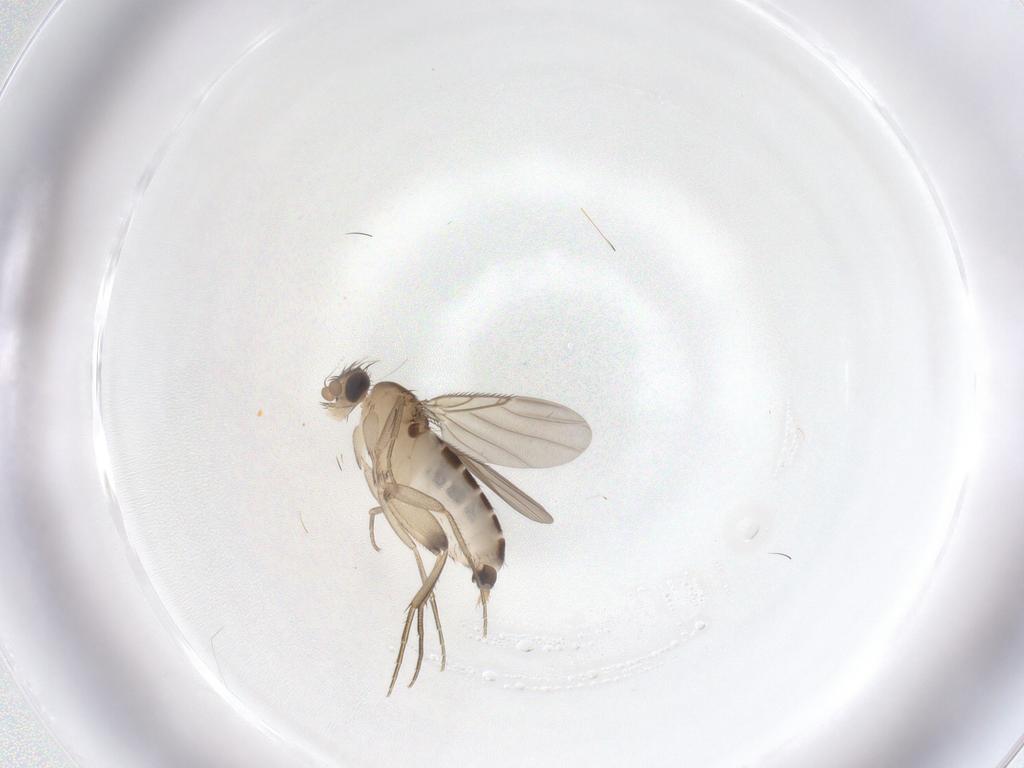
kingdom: Animalia
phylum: Arthropoda
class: Insecta
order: Diptera
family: Phoridae
